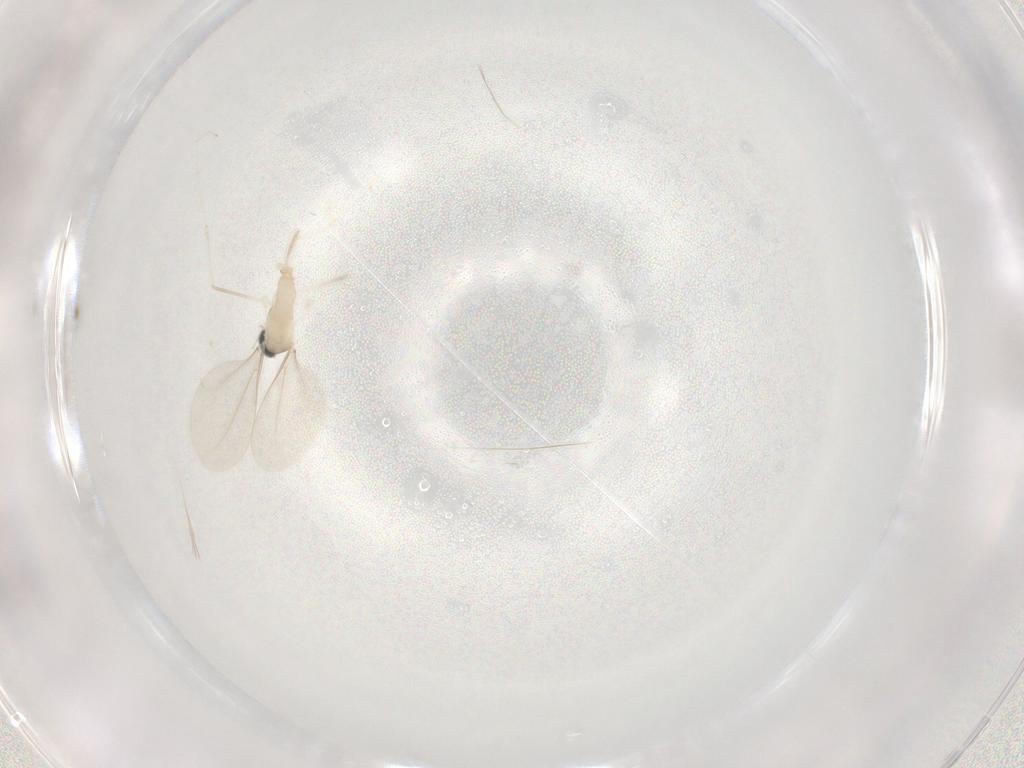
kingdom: Animalia
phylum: Arthropoda
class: Insecta
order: Diptera
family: Cecidomyiidae
